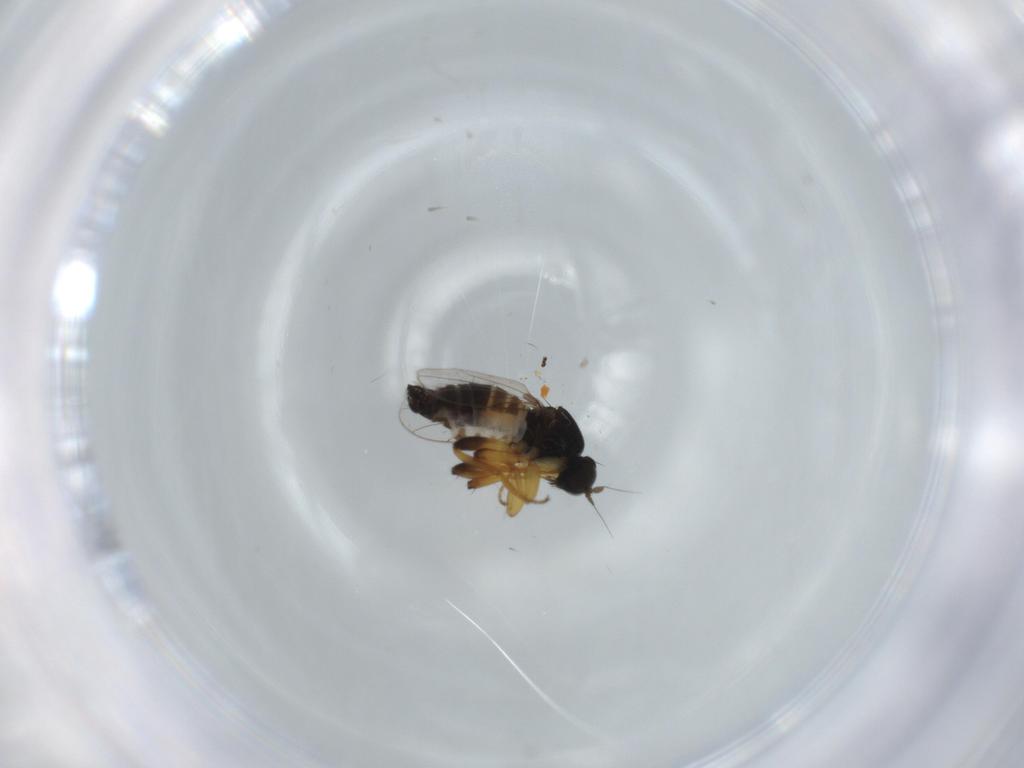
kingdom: Animalia
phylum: Arthropoda
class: Insecta
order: Diptera
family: Hybotidae
